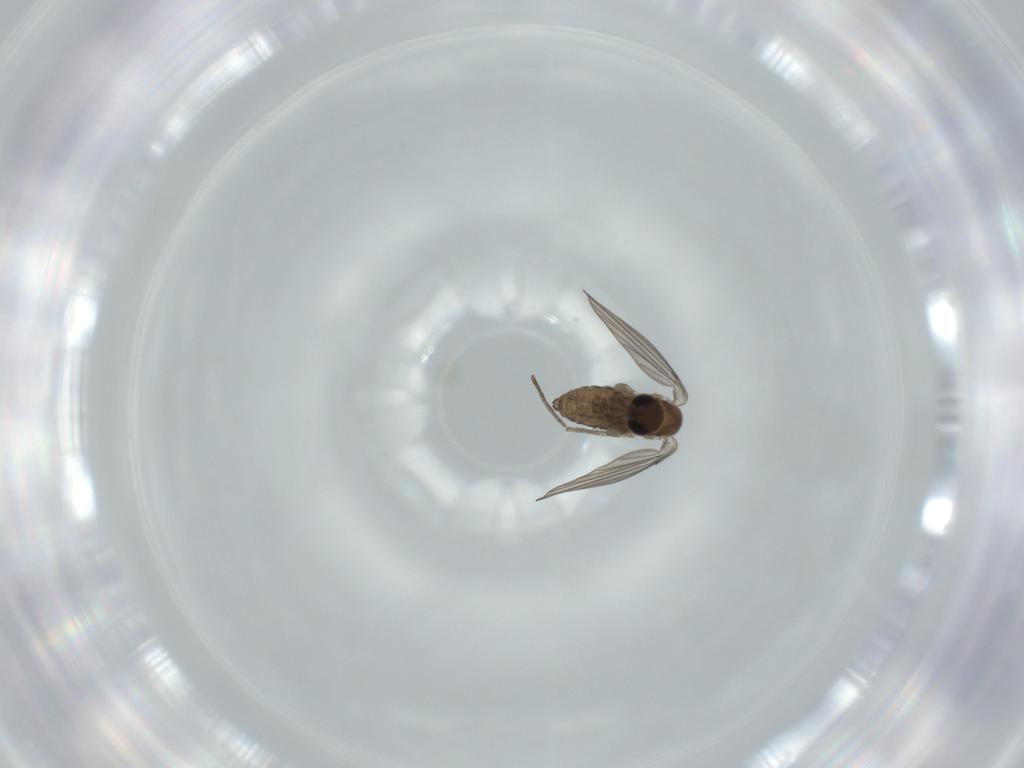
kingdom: Animalia
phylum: Arthropoda
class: Insecta
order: Diptera
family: Psychodidae
